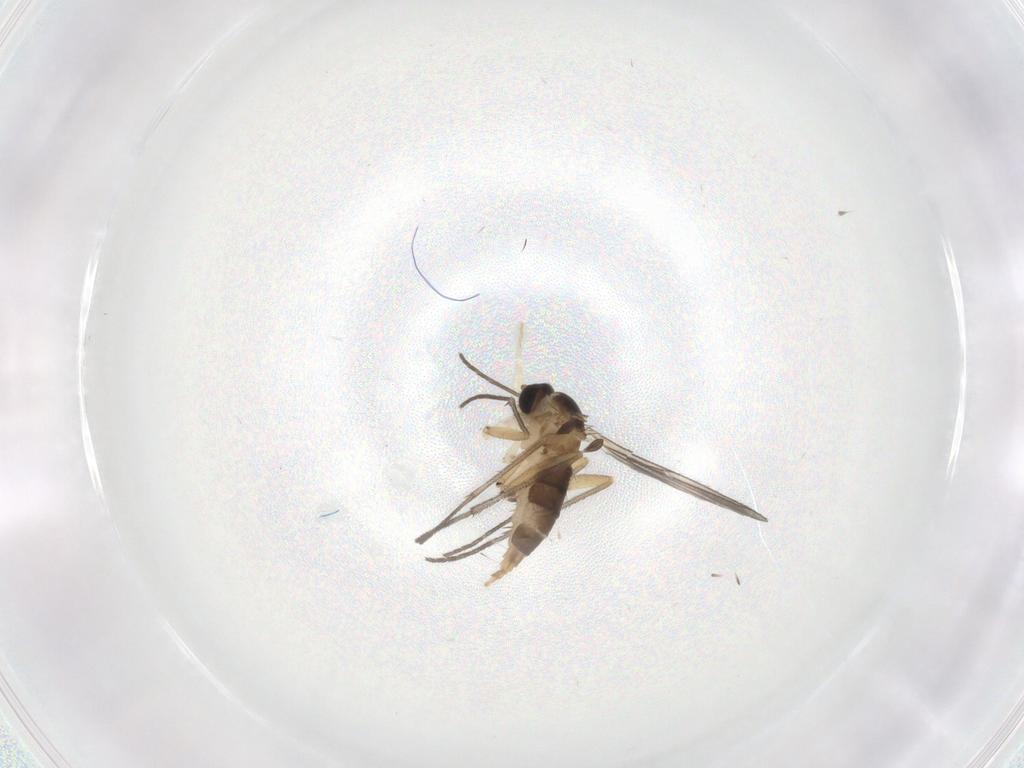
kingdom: Animalia
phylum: Arthropoda
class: Insecta
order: Diptera
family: Sciaridae
